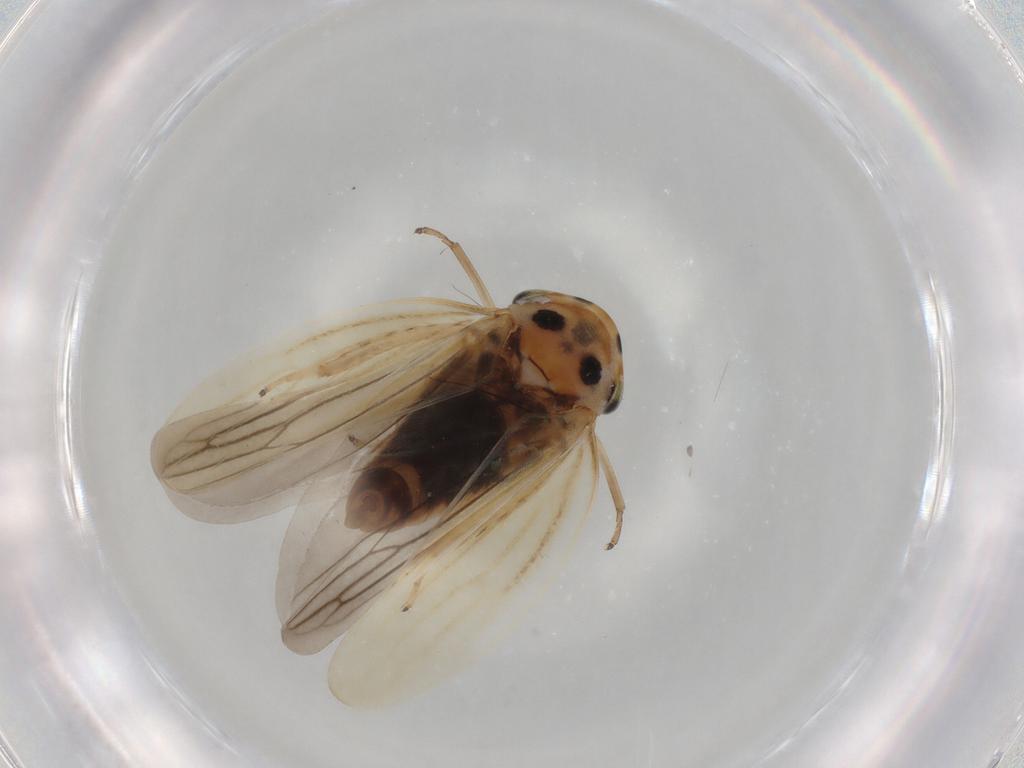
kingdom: Animalia
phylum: Arthropoda
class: Insecta
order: Hemiptera
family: Cicadellidae
